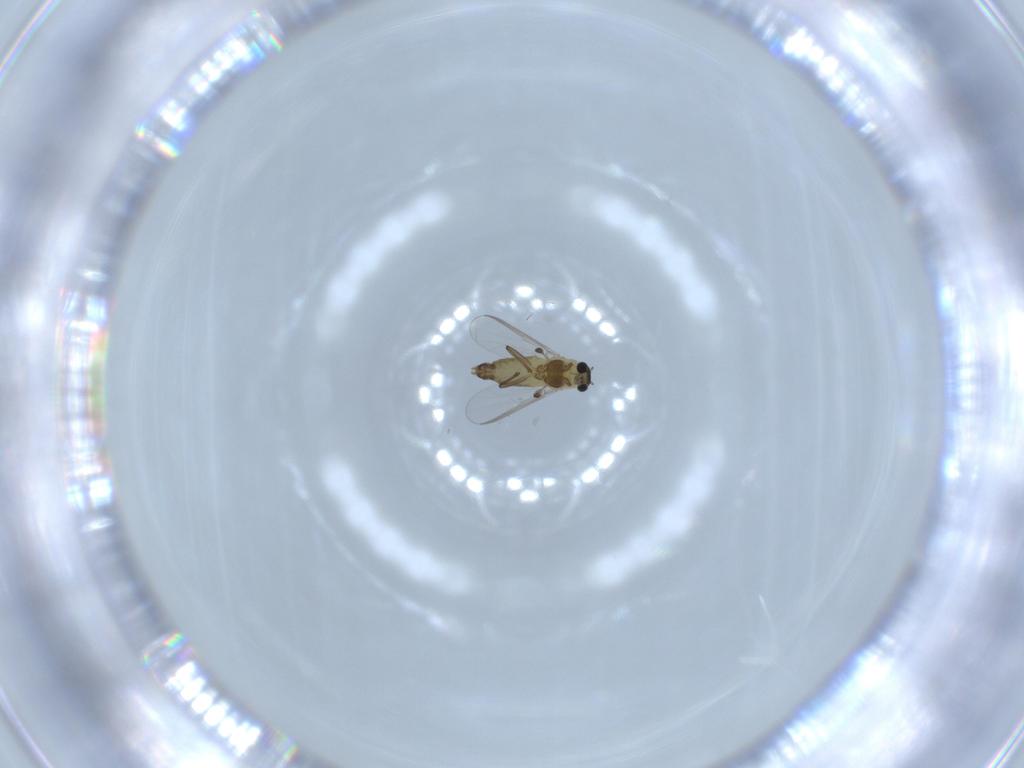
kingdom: Animalia
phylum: Arthropoda
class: Insecta
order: Diptera
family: Chironomidae
